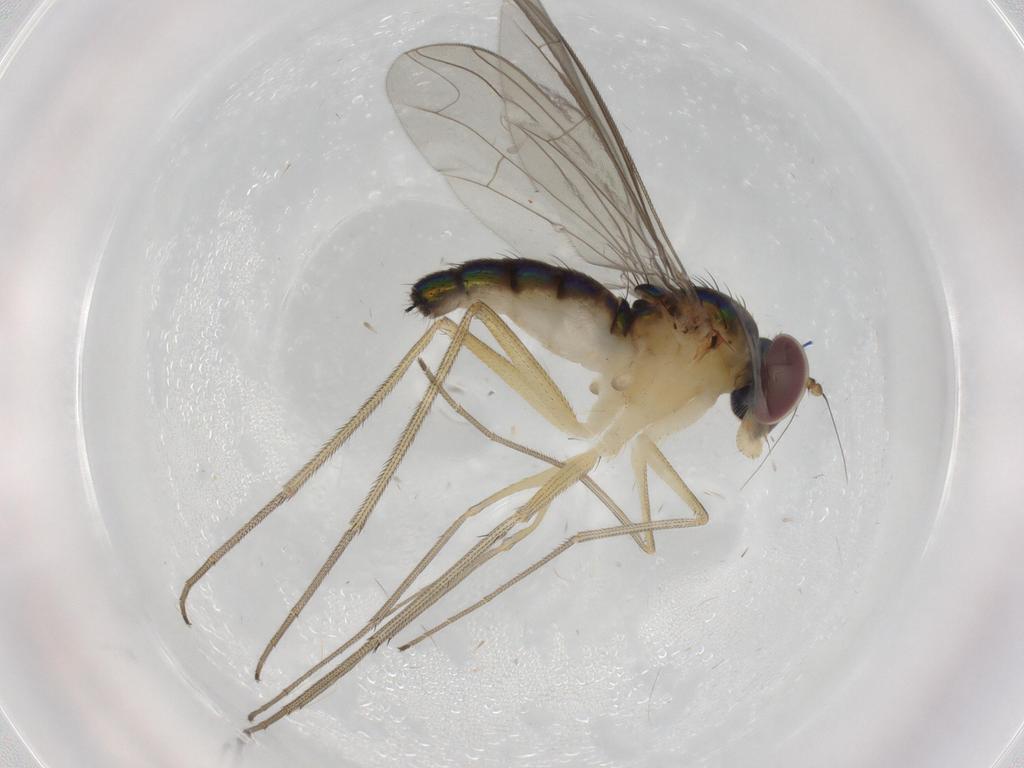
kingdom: Animalia
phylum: Arthropoda
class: Insecta
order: Diptera
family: Dolichopodidae
